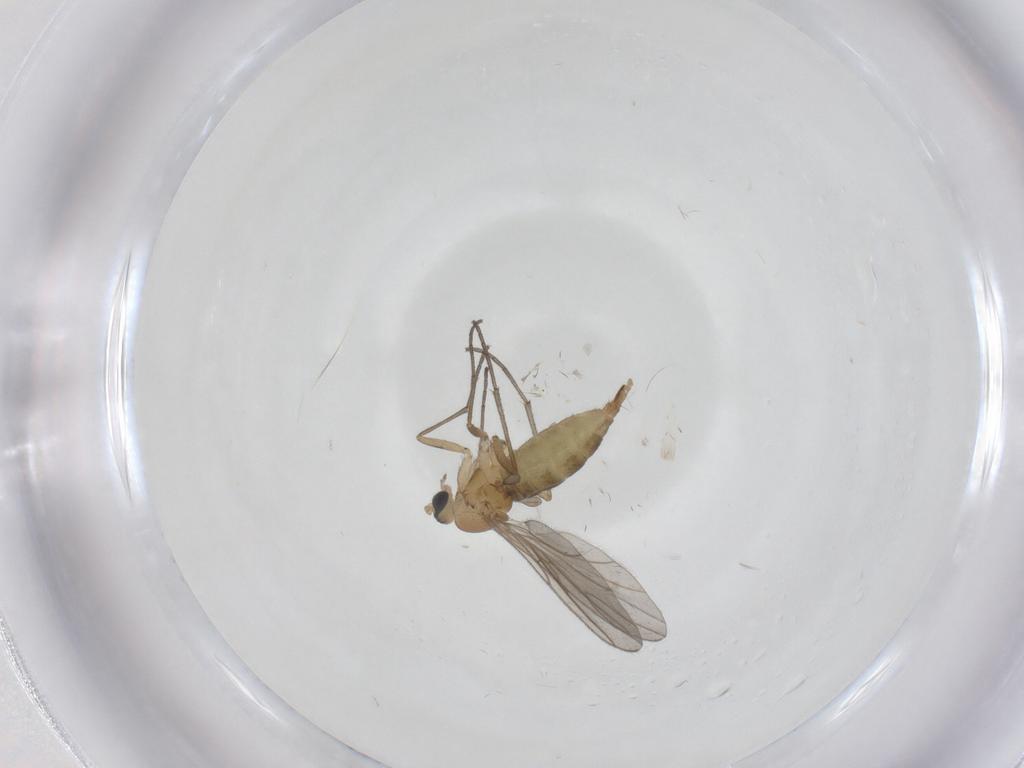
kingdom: Animalia
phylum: Arthropoda
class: Insecta
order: Diptera
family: Sciaridae
